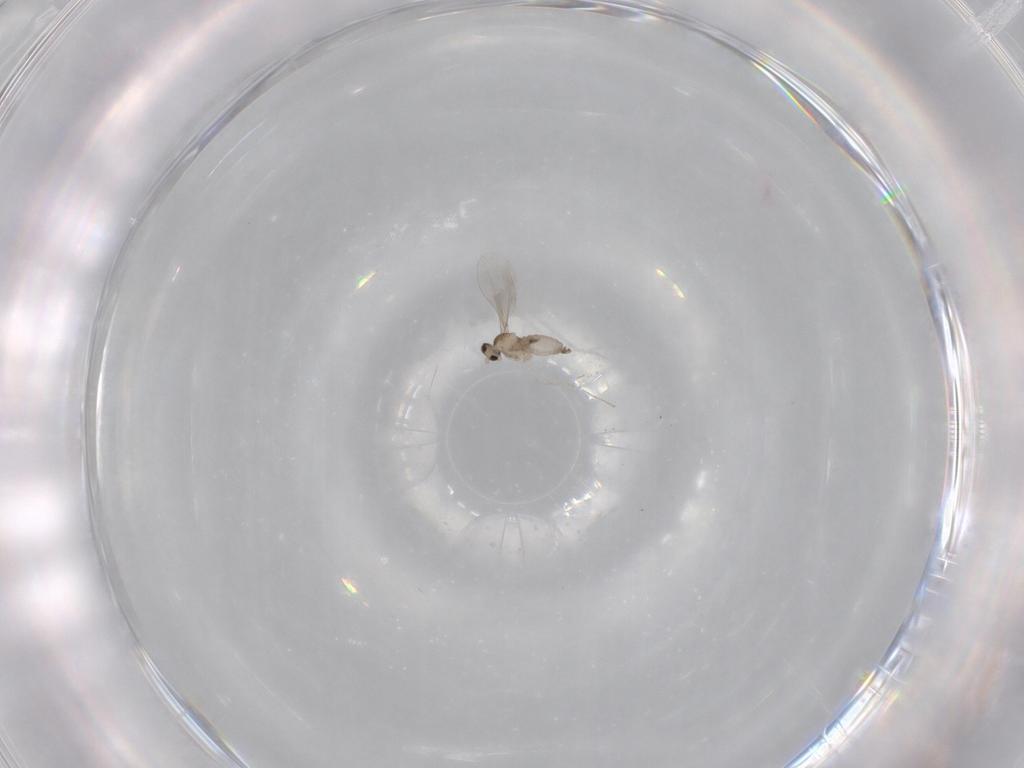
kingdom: Animalia
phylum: Arthropoda
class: Insecta
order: Diptera
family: Cecidomyiidae
